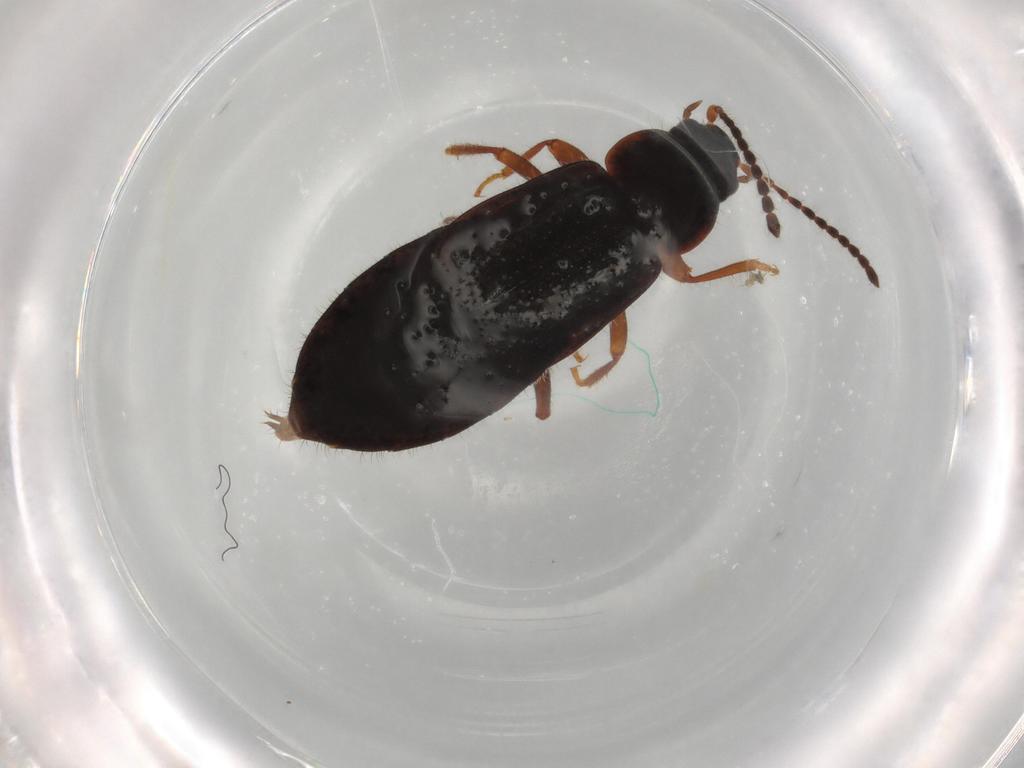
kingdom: Animalia
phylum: Arthropoda
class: Insecta
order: Coleoptera
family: Staphylinidae
